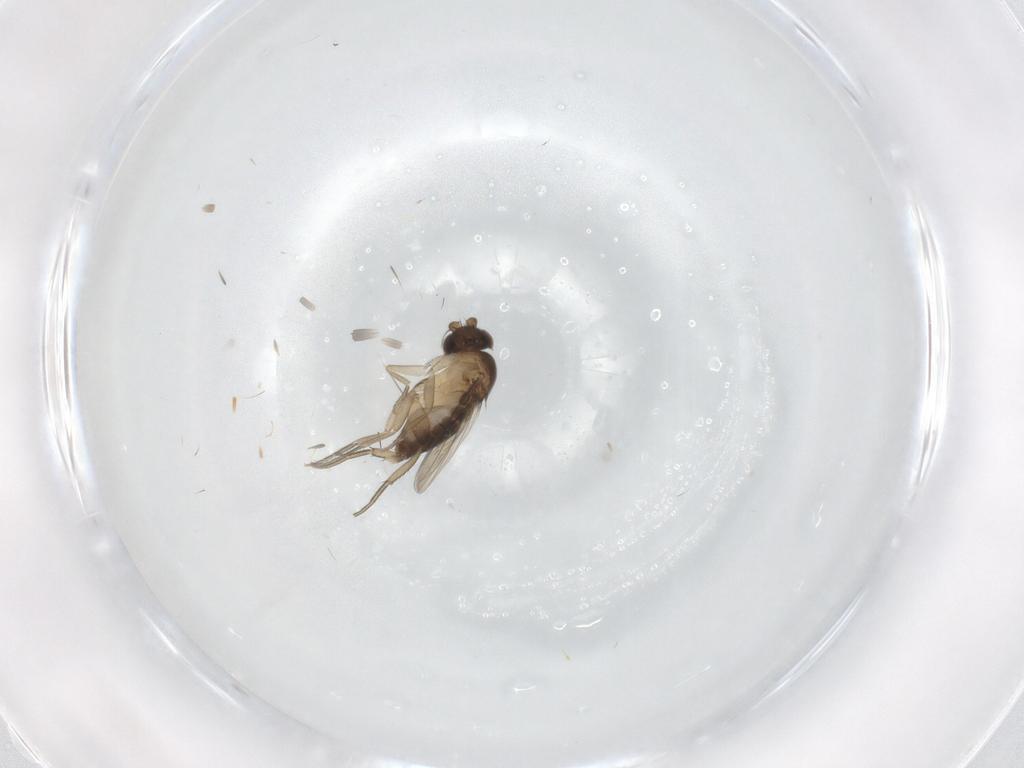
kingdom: Animalia
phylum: Arthropoda
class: Insecta
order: Diptera
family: Phoridae
